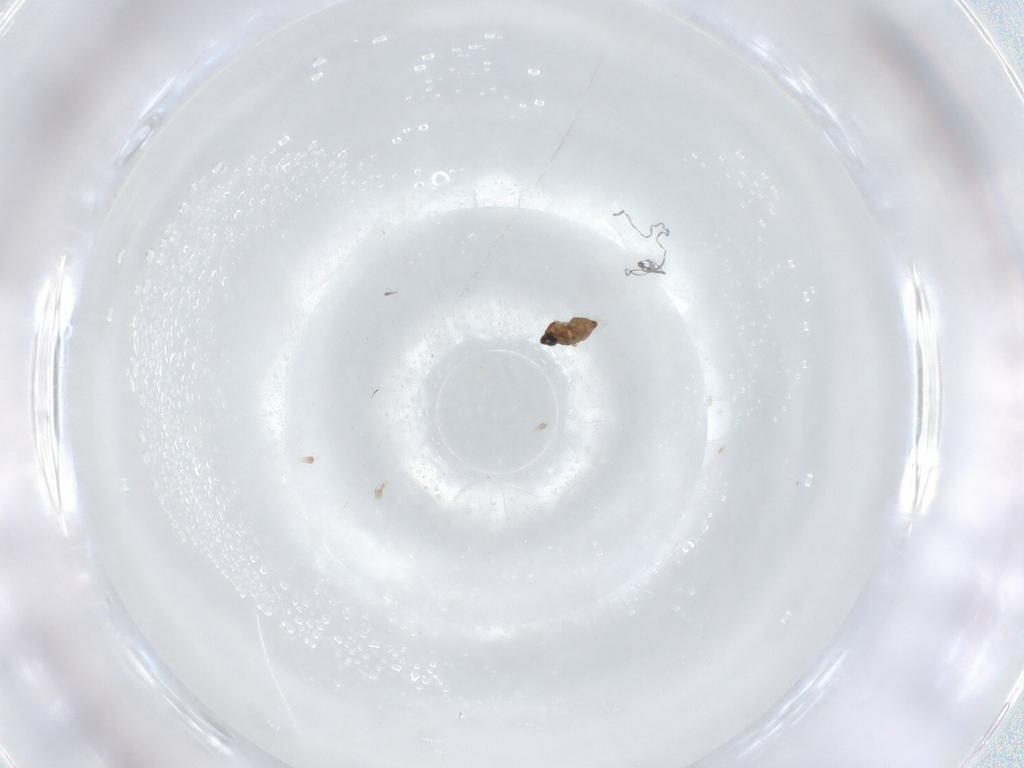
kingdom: Animalia
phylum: Arthropoda
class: Insecta
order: Diptera
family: Cecidomyiidae
